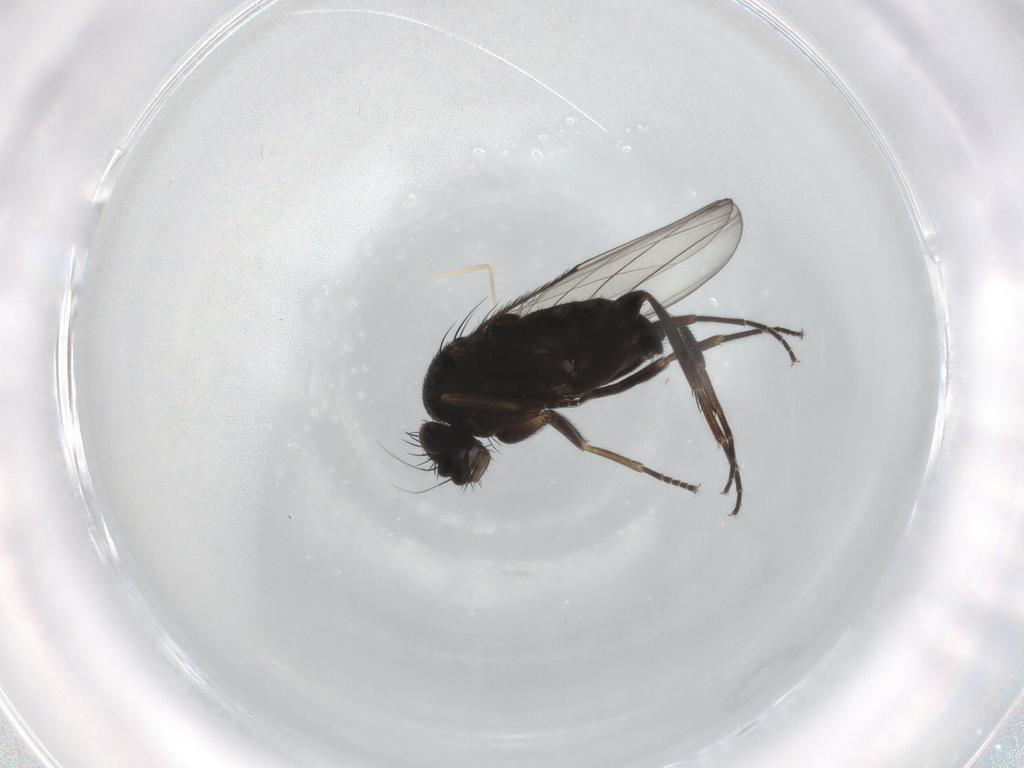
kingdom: Animalia
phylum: Arthropoda
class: Insecta
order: Diptera
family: Phoridae
